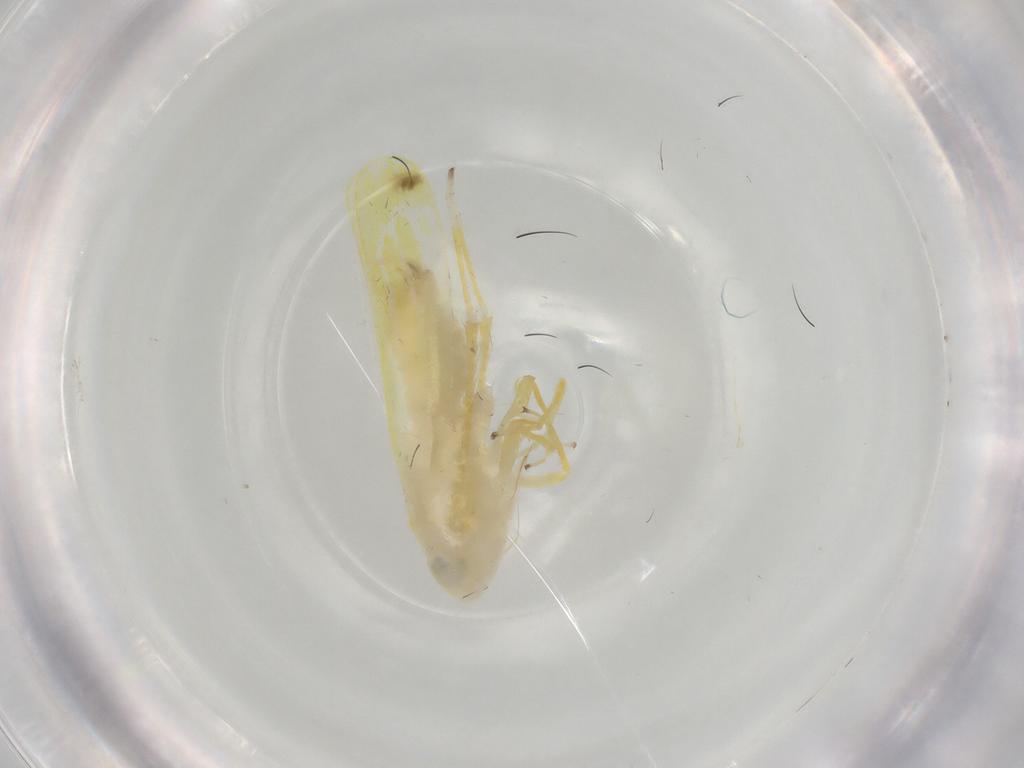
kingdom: Animalia
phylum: Arthropoda
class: Insecta
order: Hemiptera
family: Cicadellidae
